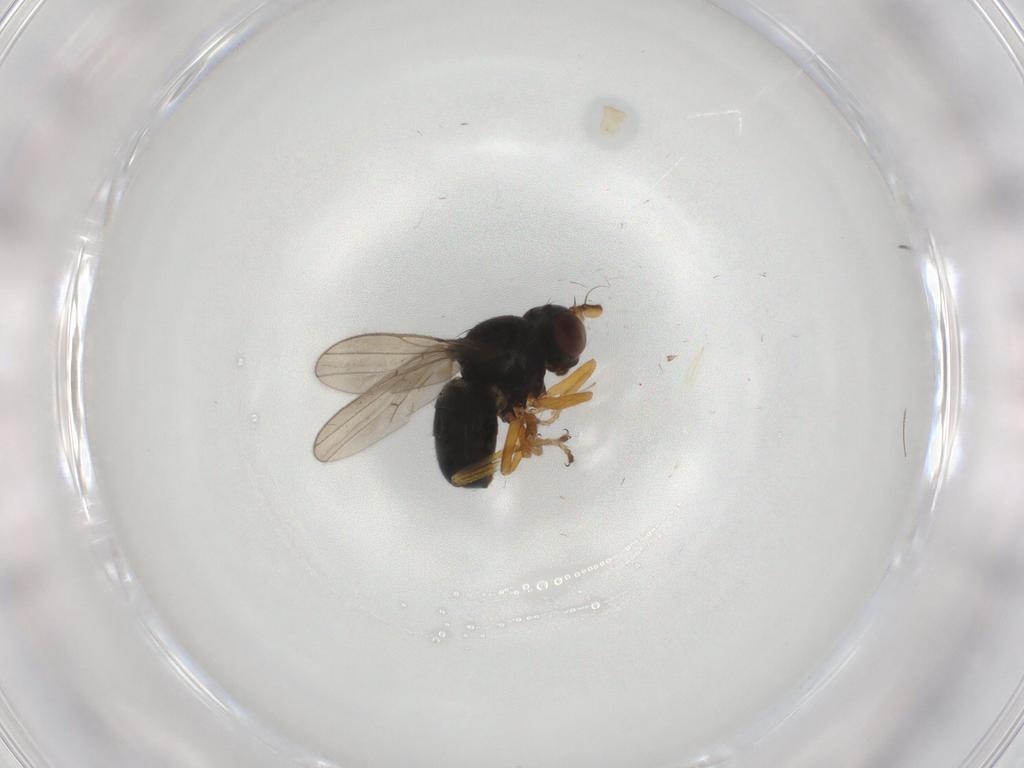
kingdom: Animalia
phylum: Arthropoda
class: Insecta
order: Diptera
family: Ephydridae
